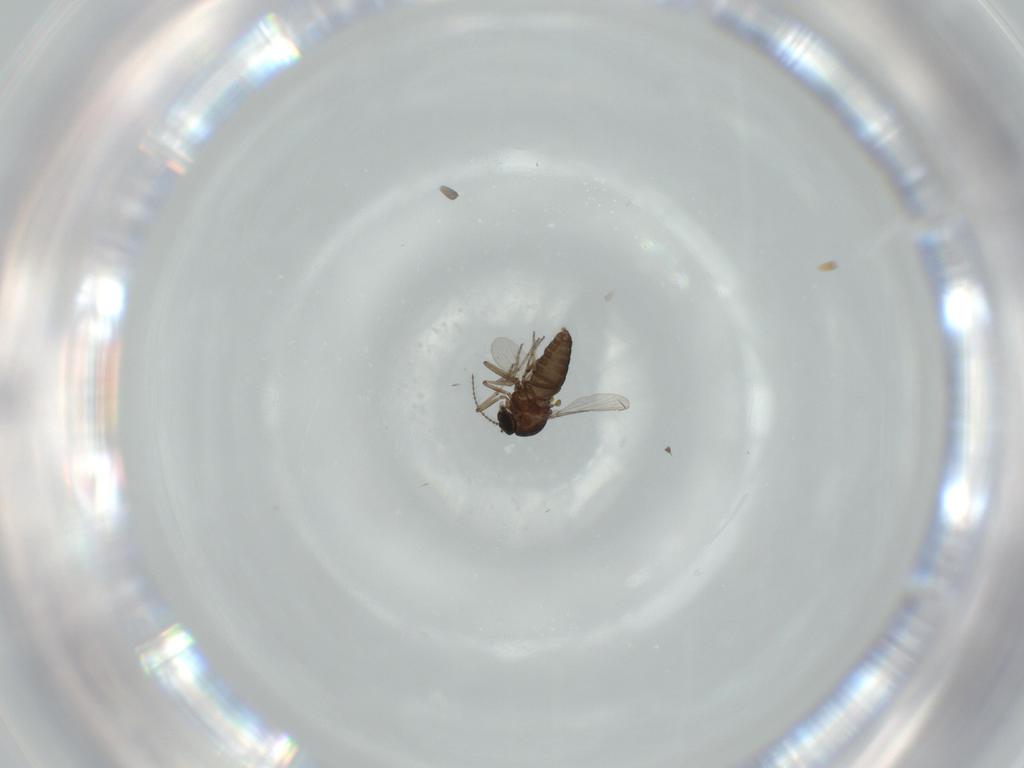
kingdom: Animalia
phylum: Arthropoda
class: Insecta
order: Diptera
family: Ceratopogonidae
